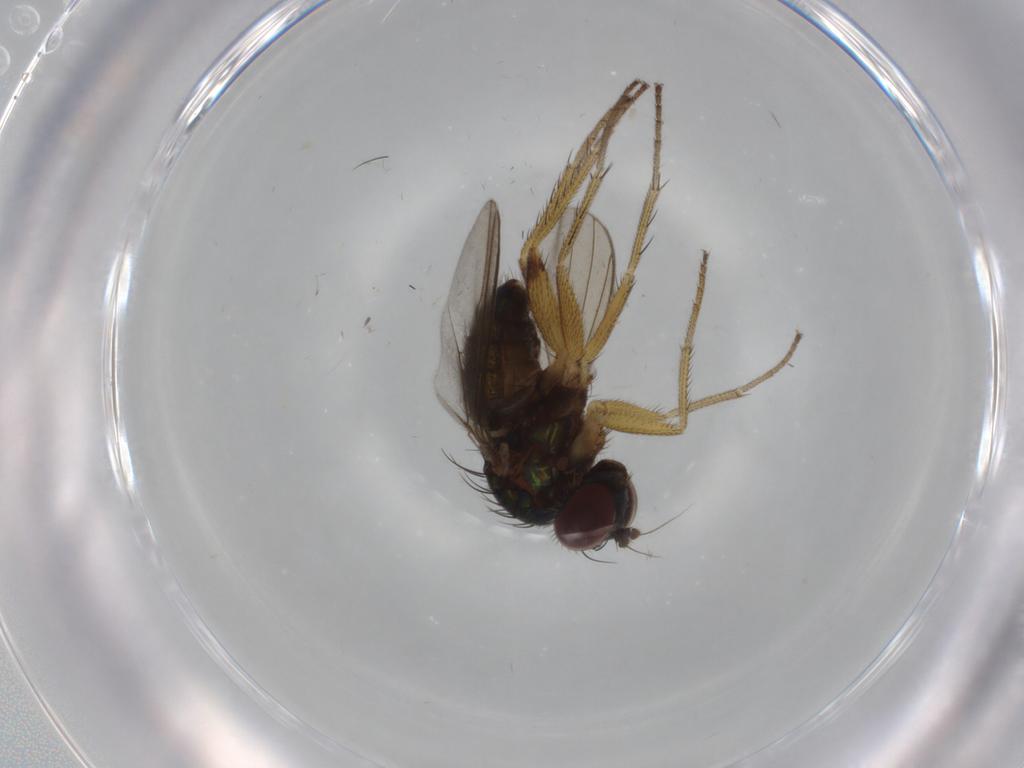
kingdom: Animalia
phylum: Arthropoda
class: Insecta
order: Diptera
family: Dolichopodidae
